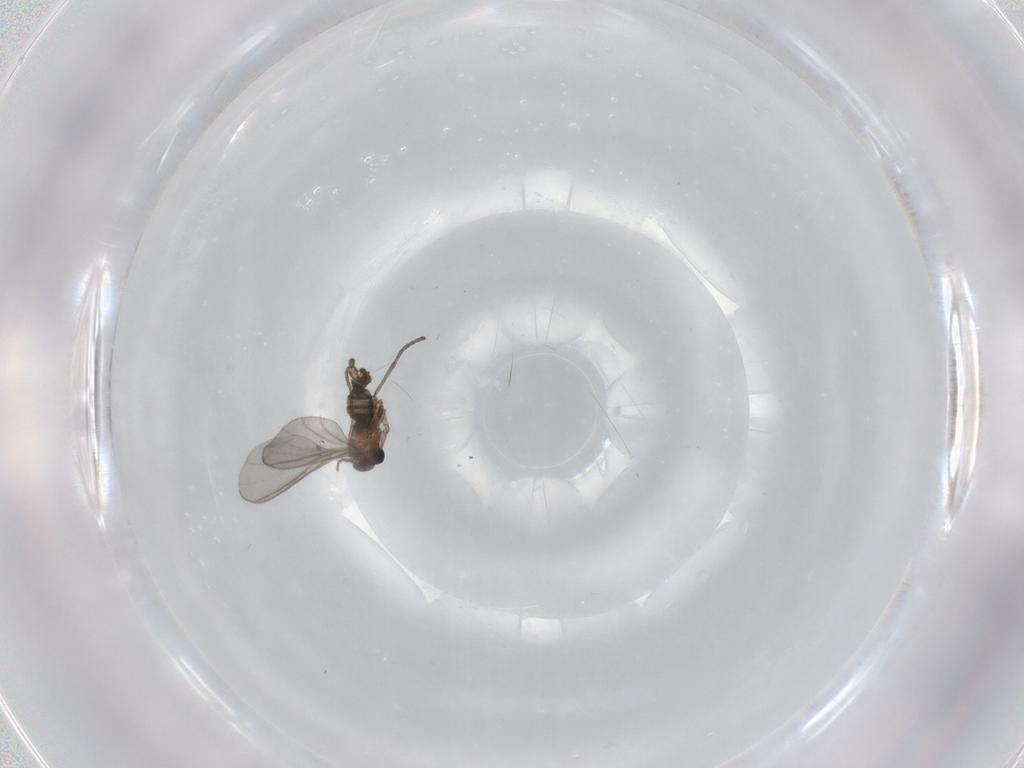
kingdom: Animalia
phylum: Arthropoda
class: Insecta
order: Diptera
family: Sciaridae
